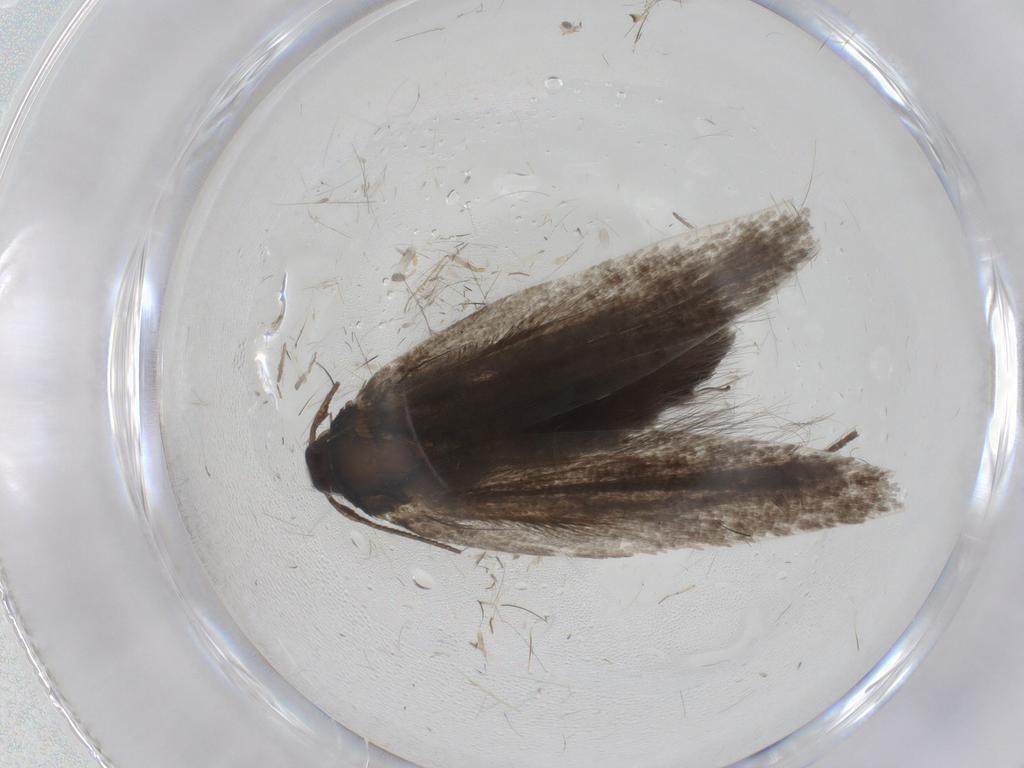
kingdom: Animalia
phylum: Arthropoda
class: Insecta
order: Lepidoptera
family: Gelechiidae
